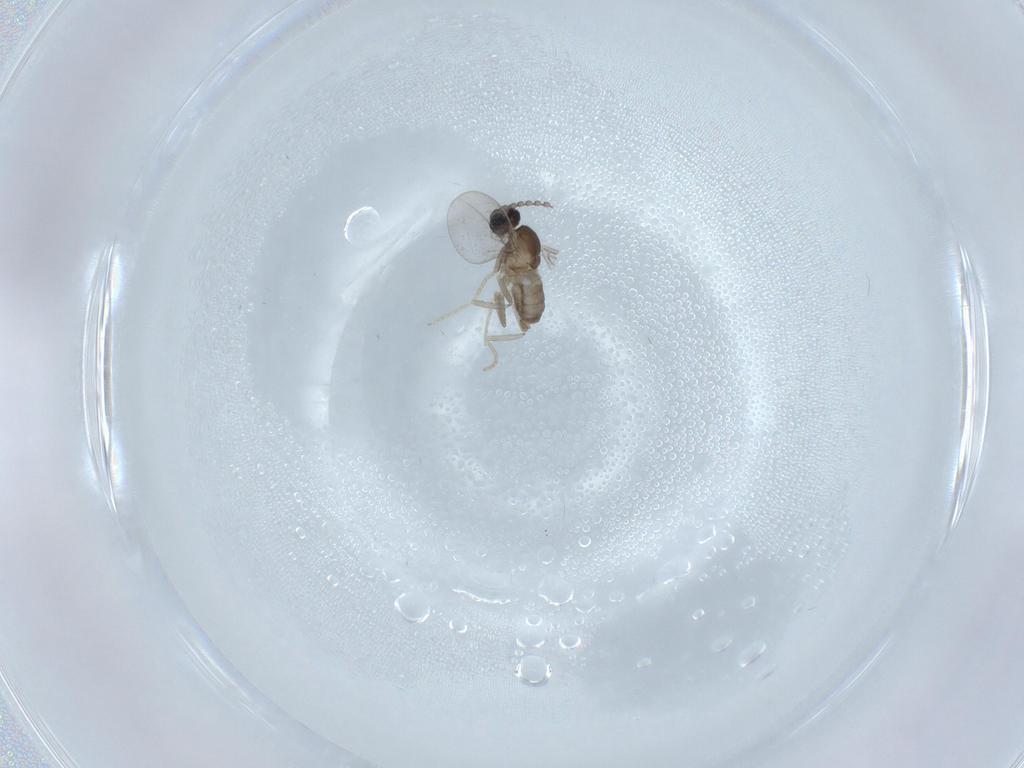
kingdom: Animalia
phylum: Arthropoda
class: Insecta
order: Diptera
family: Cecidomyiidae
